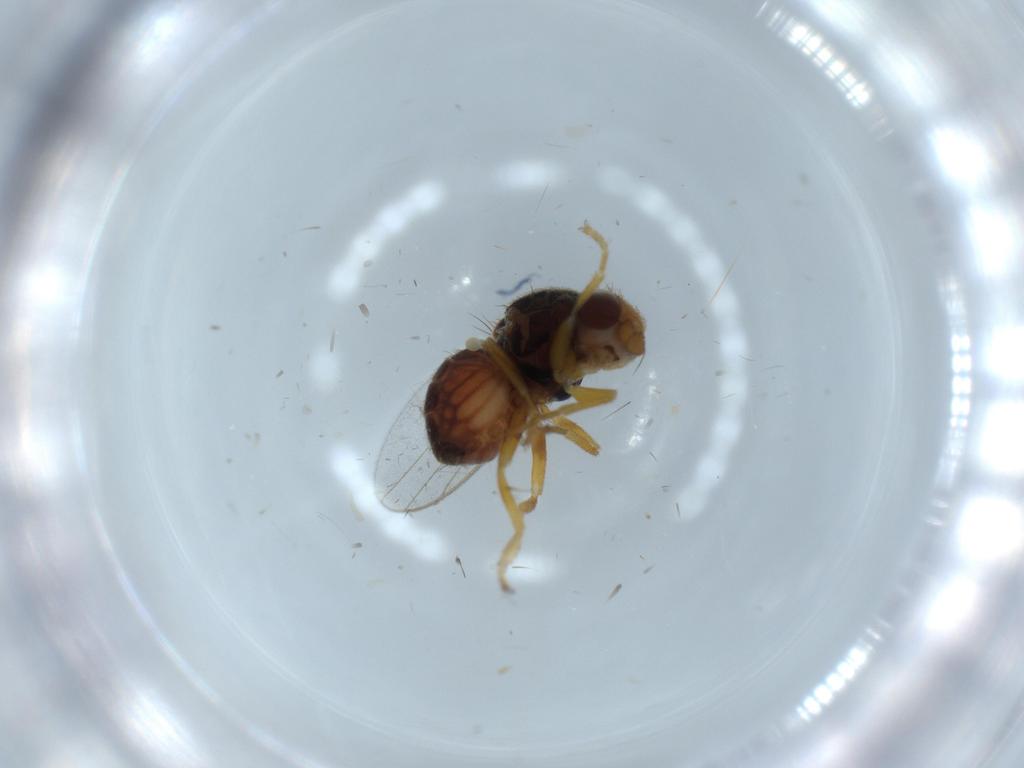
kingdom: Animalia
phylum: Arthropoda
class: Insecta
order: Diptera
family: Chloropidae
